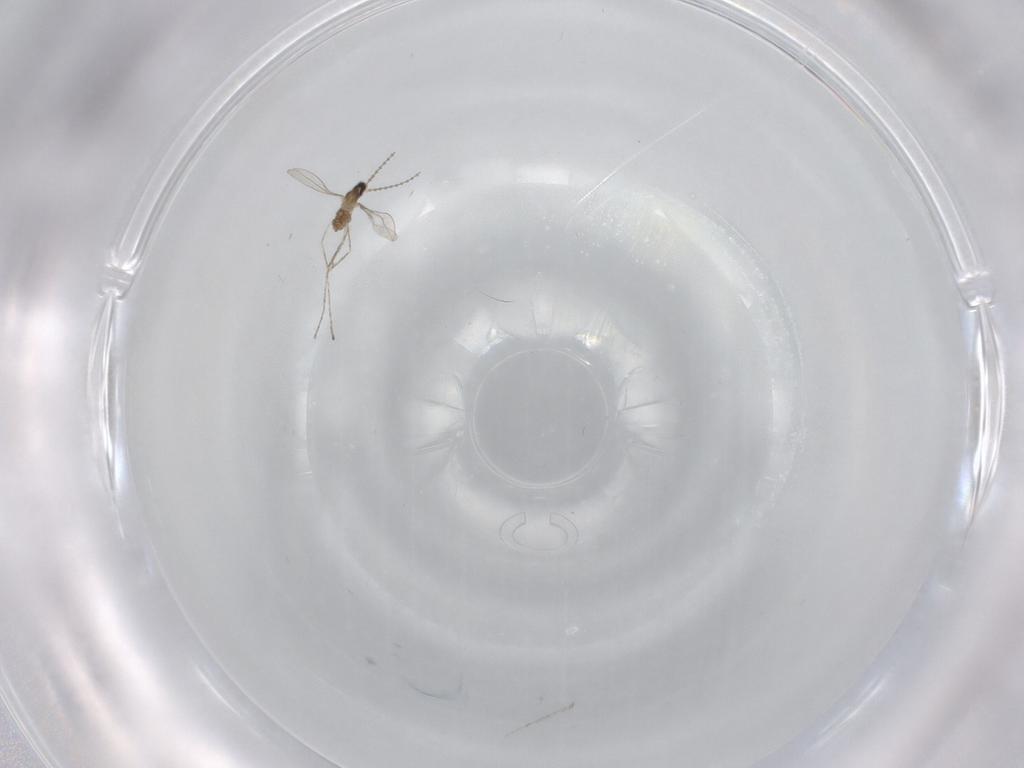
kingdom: Animalia
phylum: Arthropoda
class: Insecta
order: Diptera
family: Cecidomyiidae
